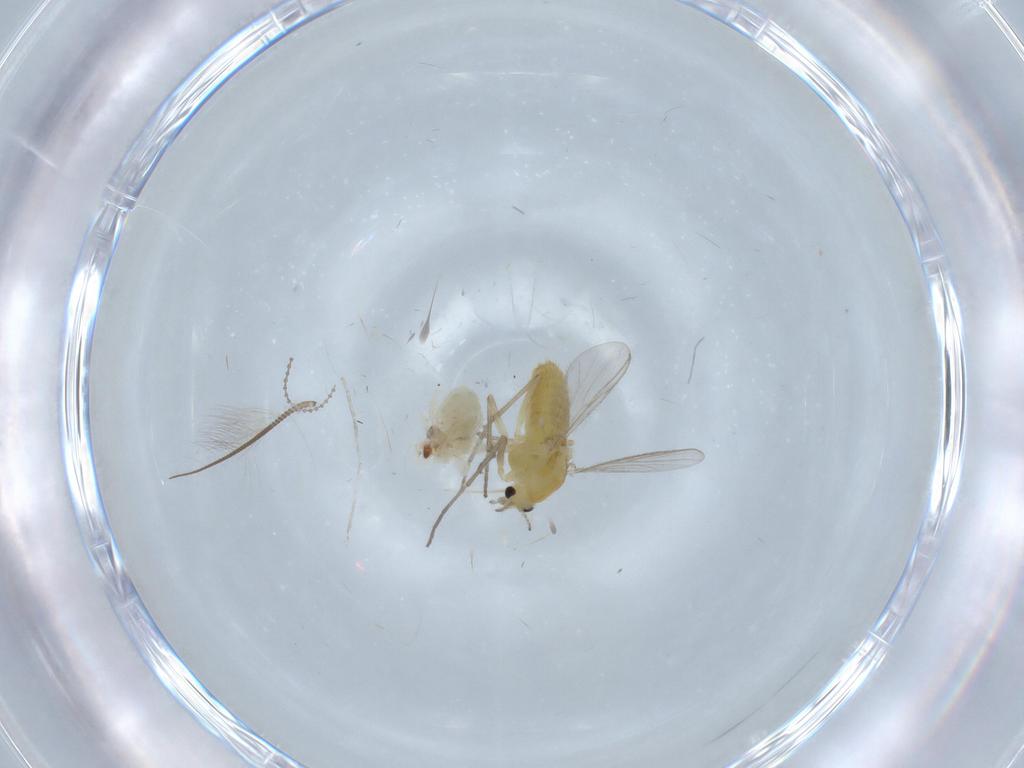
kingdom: Animalia
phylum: Arthropoda
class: Insecta
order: Diptera
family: Chironomidae
